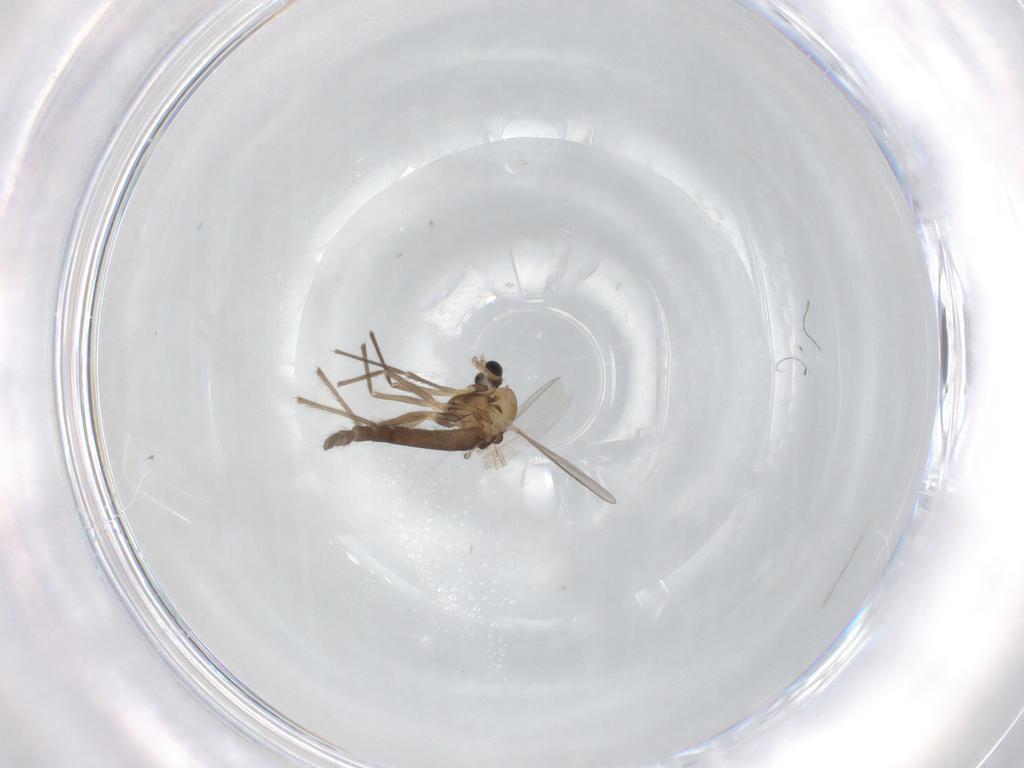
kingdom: Animalia
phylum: Arthropoda
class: Insecta
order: Diptera
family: Chironomidae
